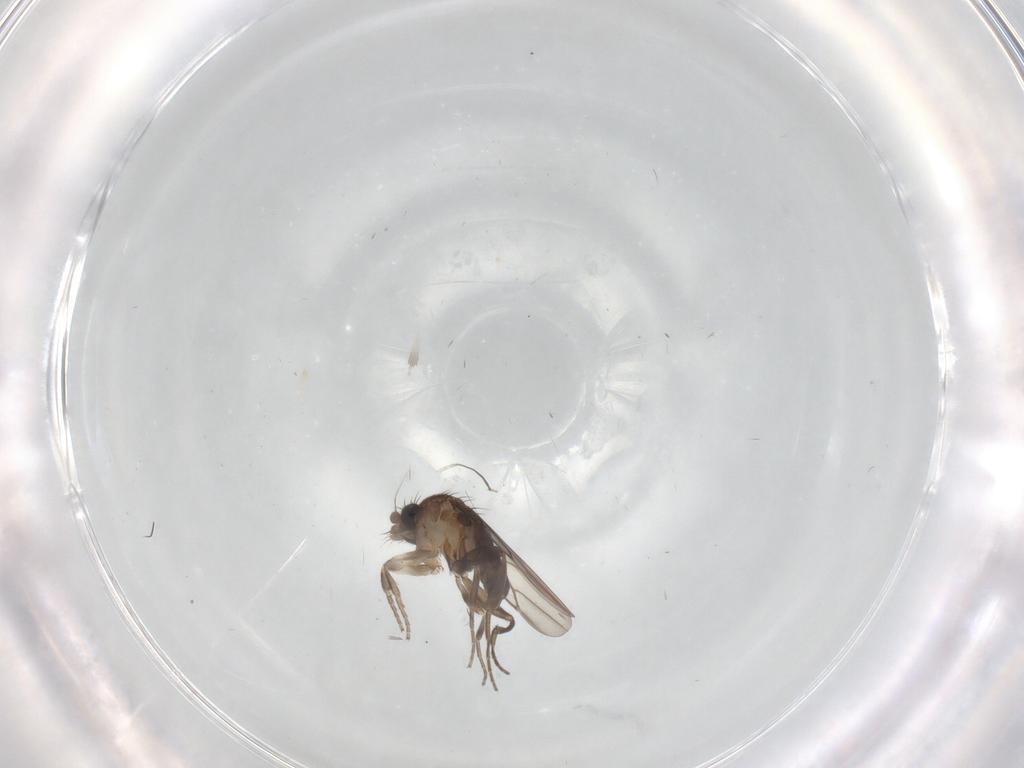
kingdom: Animalia
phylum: Arthropoda
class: Insecta
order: Diptera
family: Phoridae
